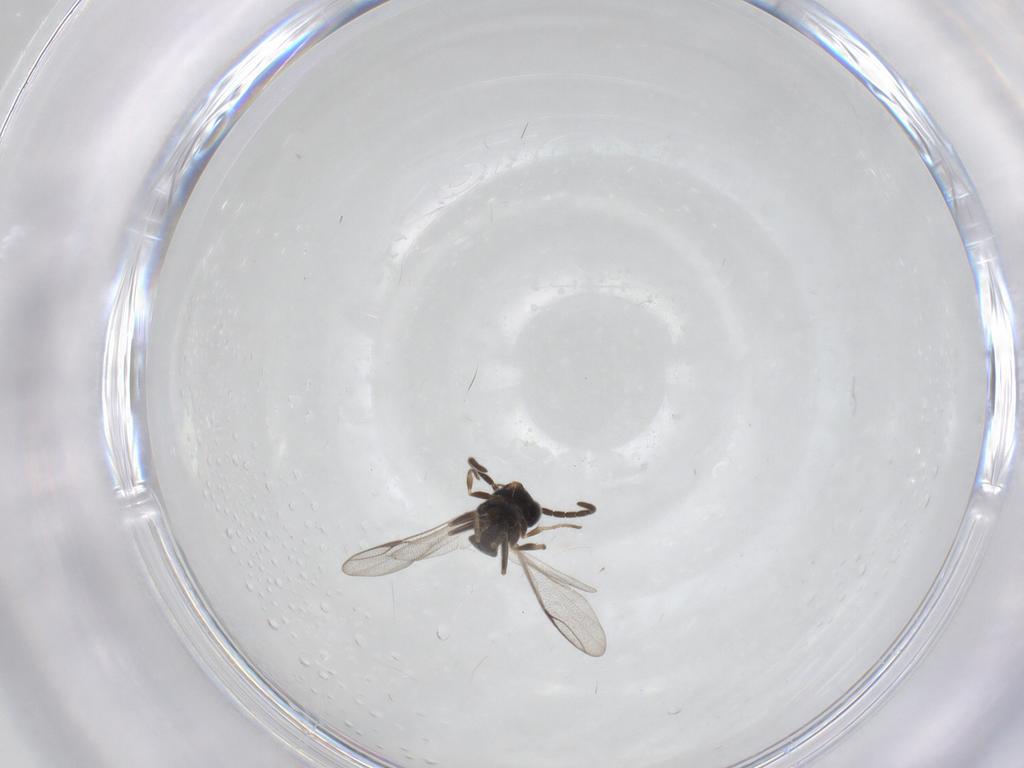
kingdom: Animalia
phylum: Arthropoda
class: Insecta
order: Hymenoptera
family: Dryinidae
